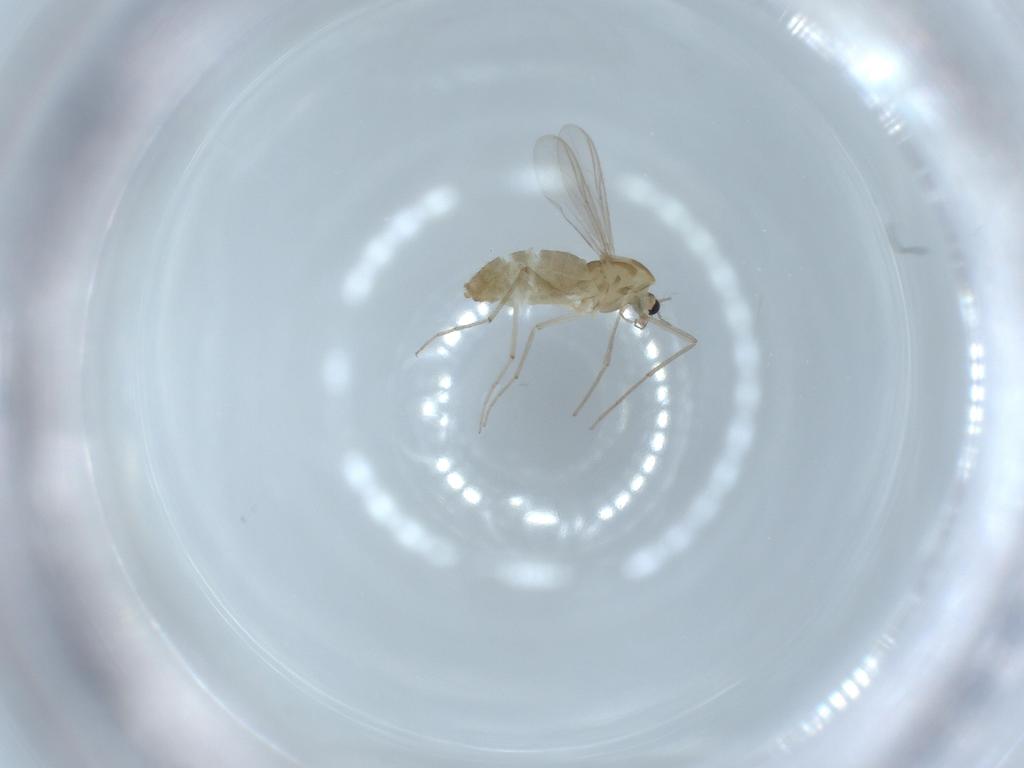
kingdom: Animalia
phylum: Arthropoda
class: Insecta
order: Diptera
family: Chironomidae
